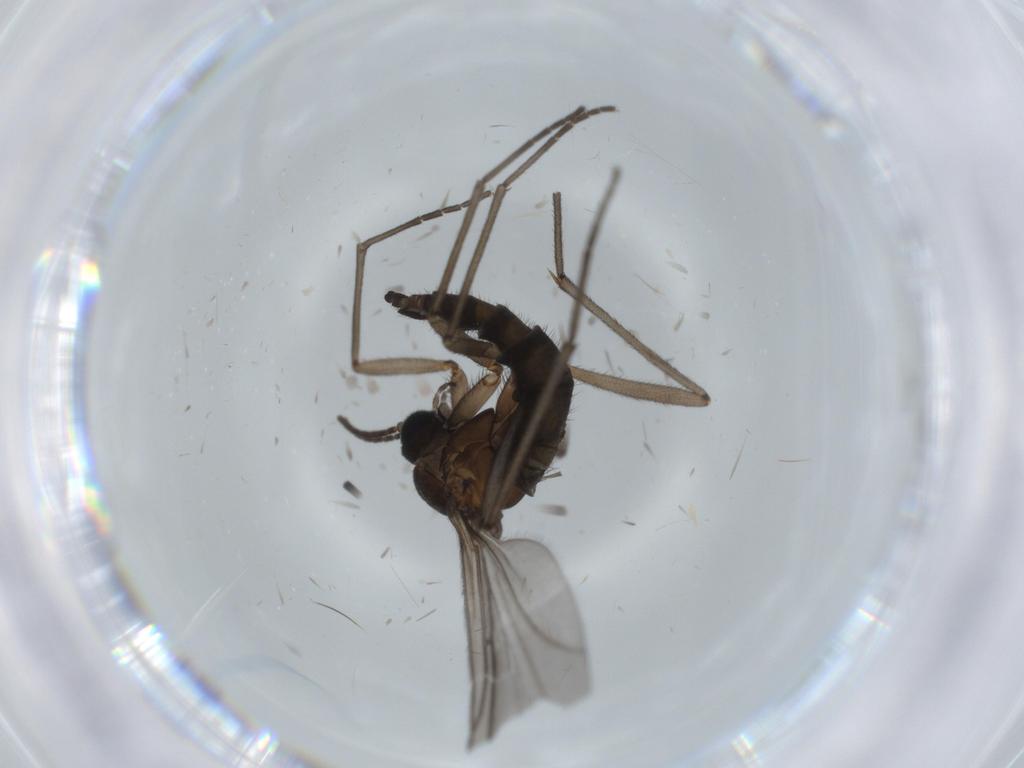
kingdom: Animalia
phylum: Arthropoda
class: Insecta
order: Diptera
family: Sciaridae
